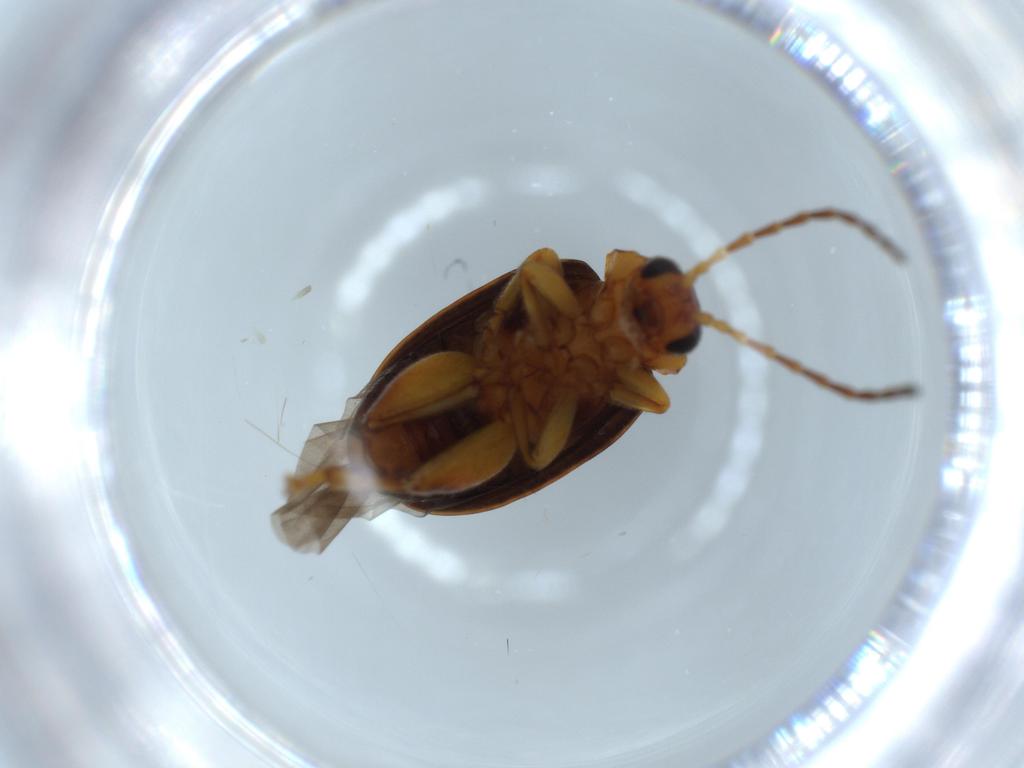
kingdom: Animalia
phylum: Arthropoda
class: Insecta
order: Coleoptera
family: Chrysomelidae
